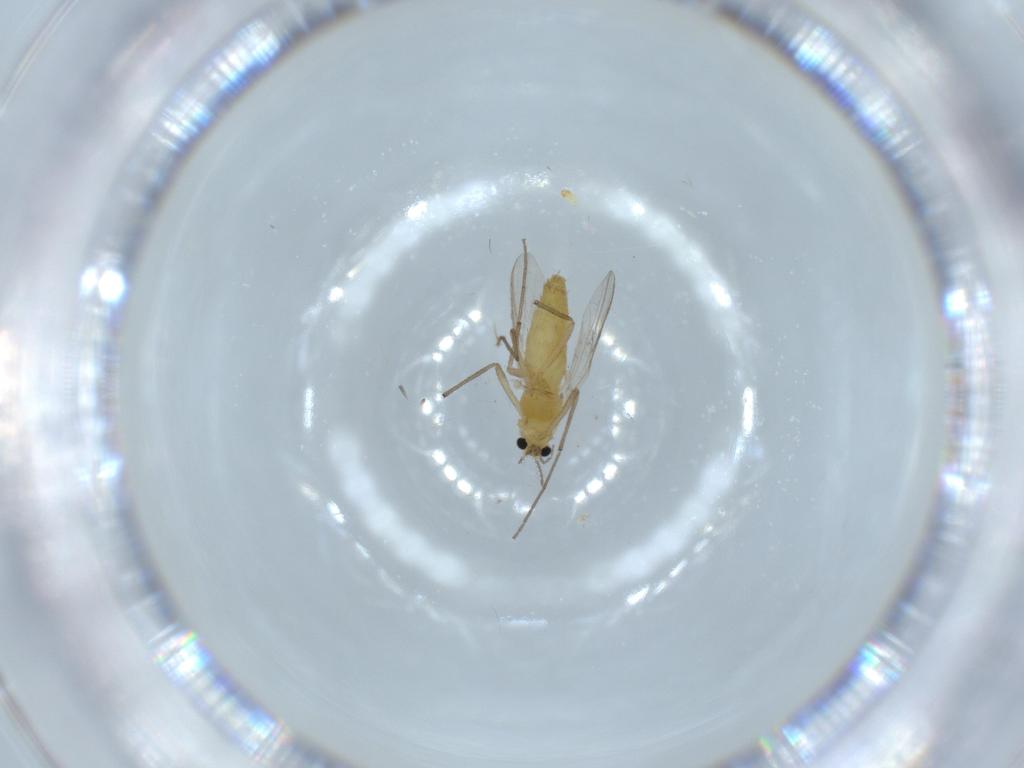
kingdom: Animalia
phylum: Arthropoda
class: Insecta
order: Diptera
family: Chironomidae
